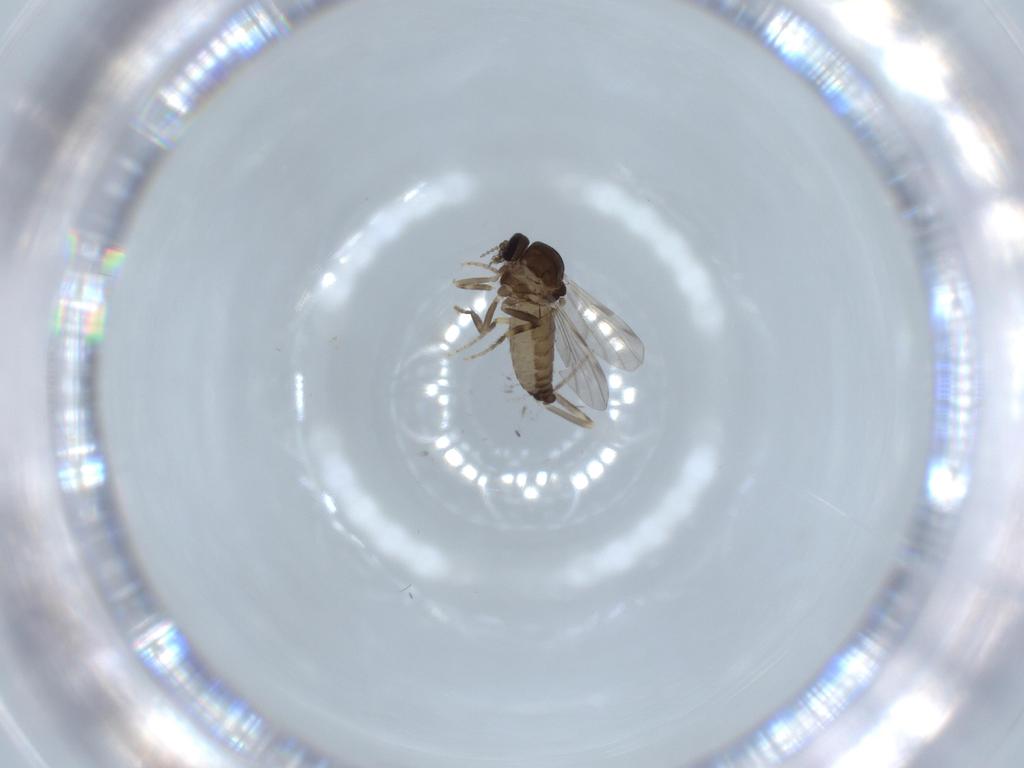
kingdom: Animalia
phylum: Arthropoda
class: Insecta
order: Diptera
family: Ceratopogonidae
